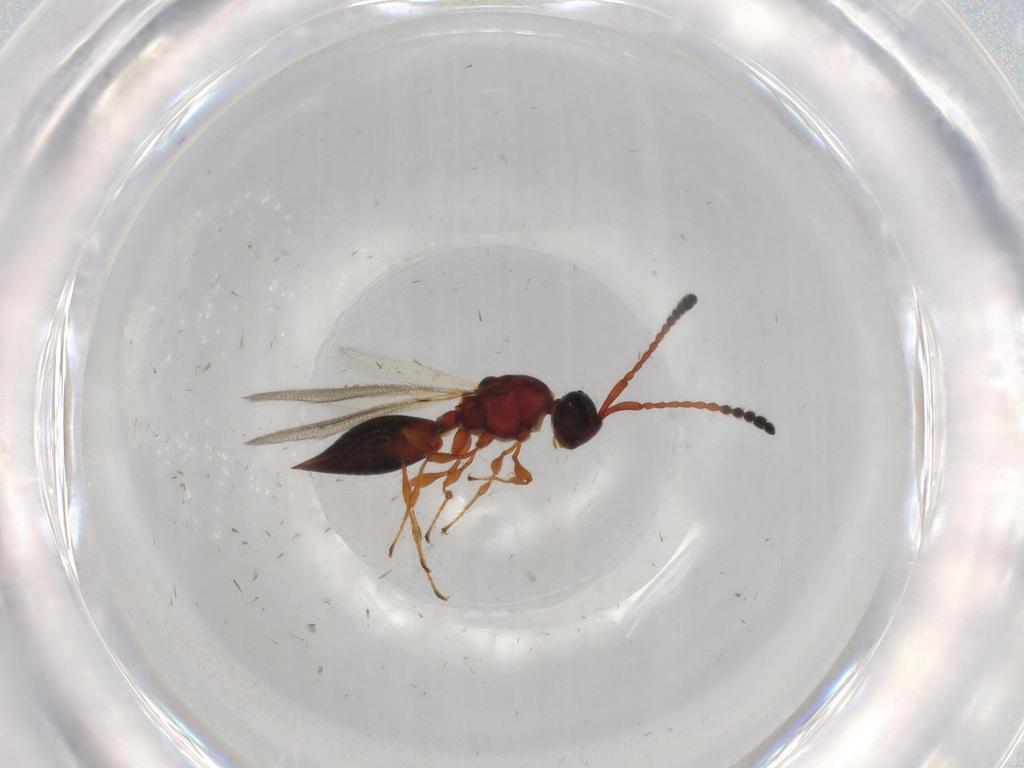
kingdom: Animalia
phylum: Arthropoda
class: Insecta
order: Hymenoptera
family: Diapriidae
